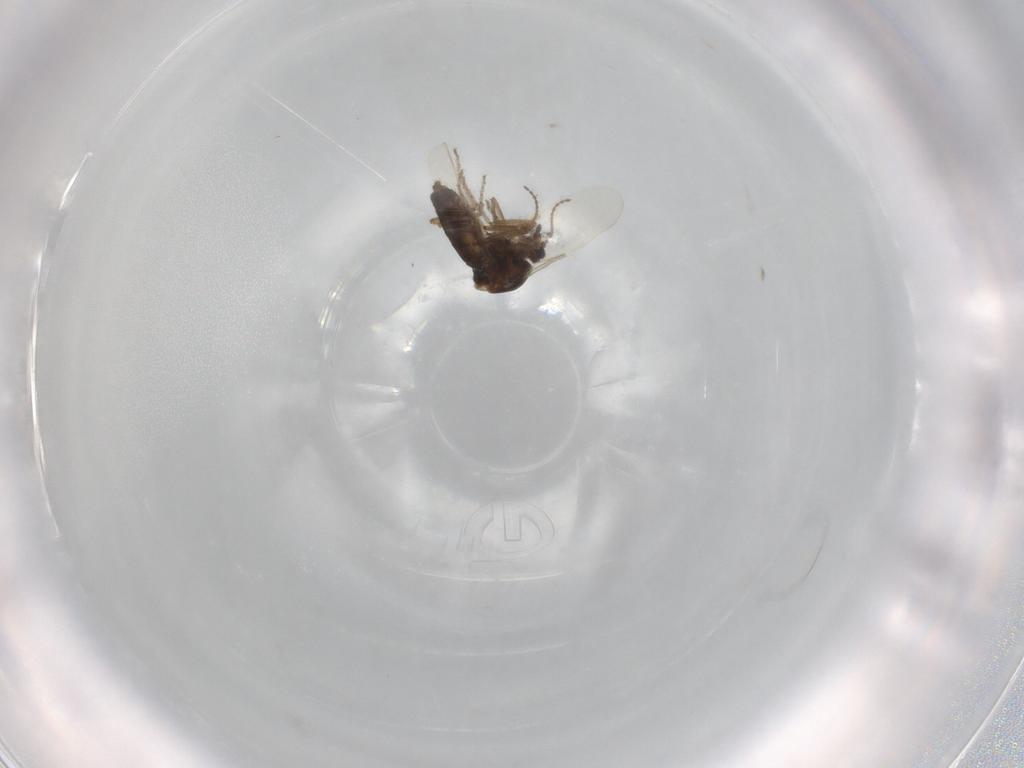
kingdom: Animalia
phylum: Arthropoda
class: Insecta
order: Diptera
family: Ceratopogonidae
